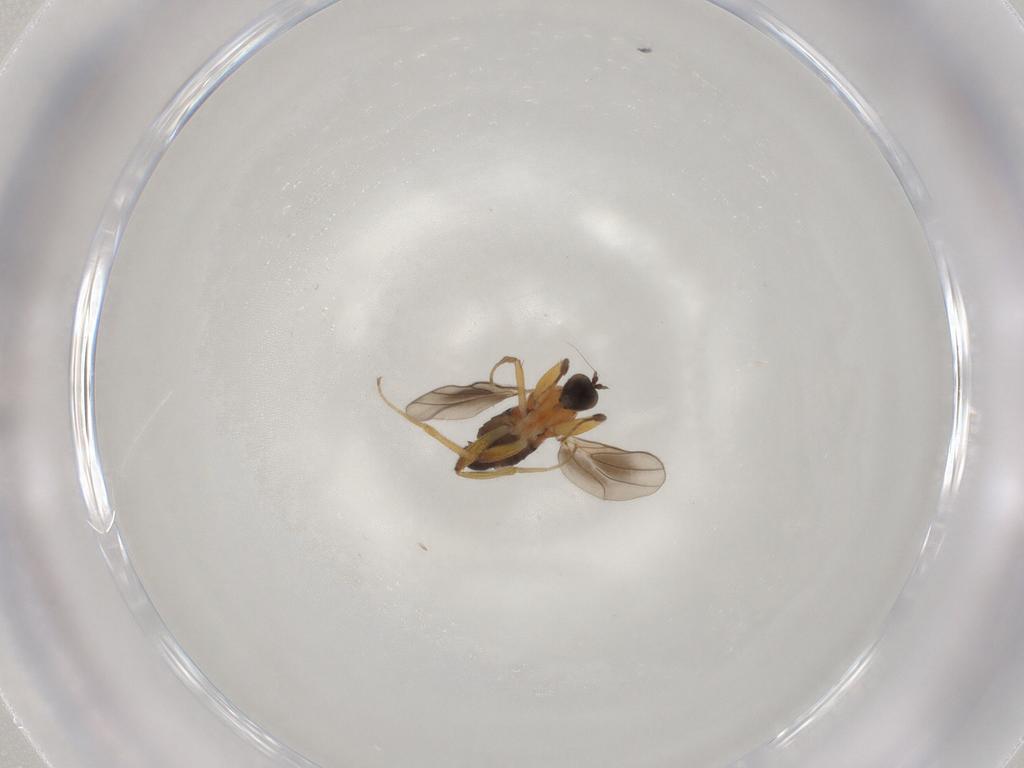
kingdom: Animalia
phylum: Arthropoda
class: Insecta
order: Diptera
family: Hybotidae
